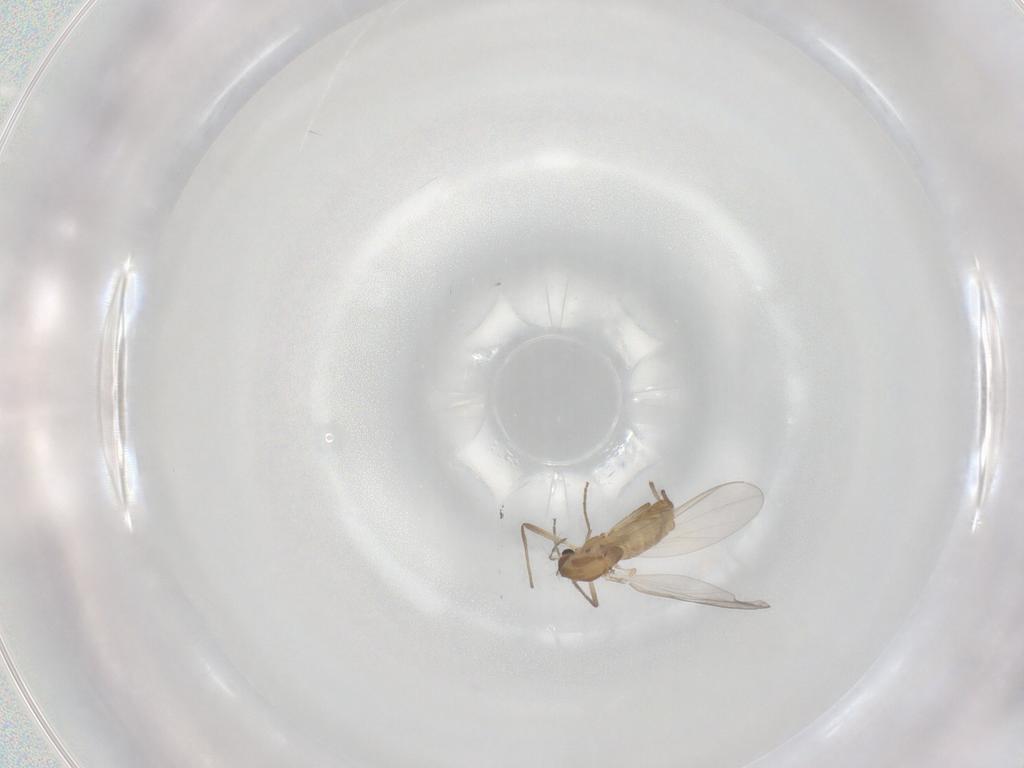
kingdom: Animalia
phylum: Arthropoda
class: Insecta
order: Diptera
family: Chironomidae
